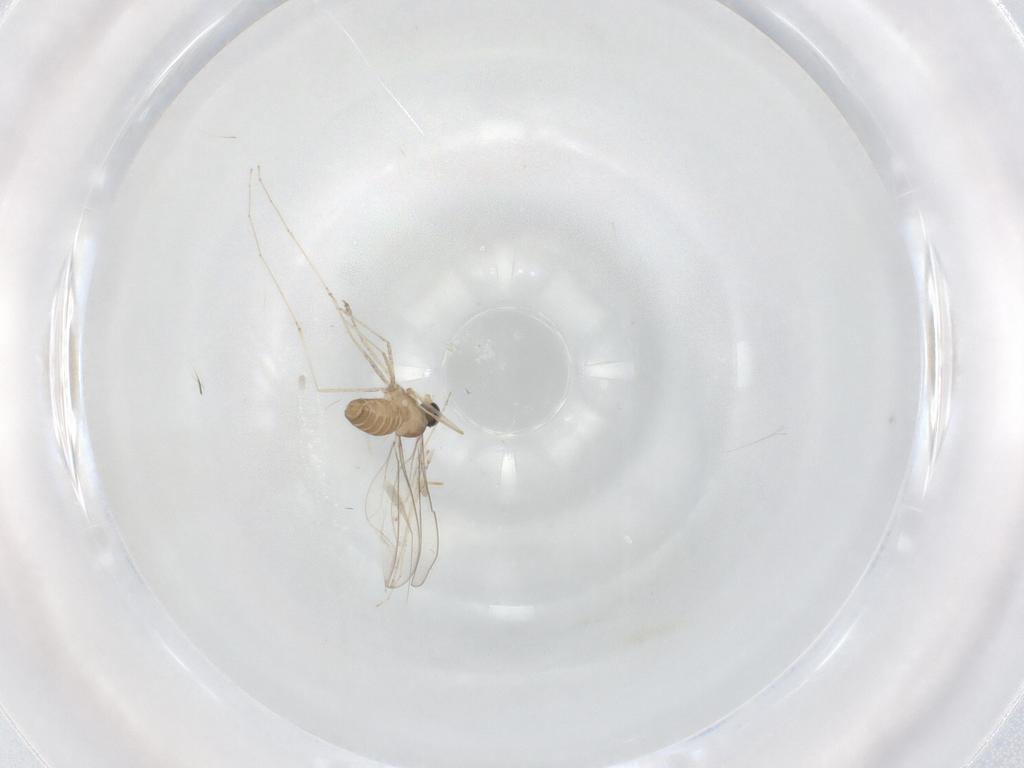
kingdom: Animalia
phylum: Arthropoda
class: Insecta
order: Diptera
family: Cecidomyiidae
